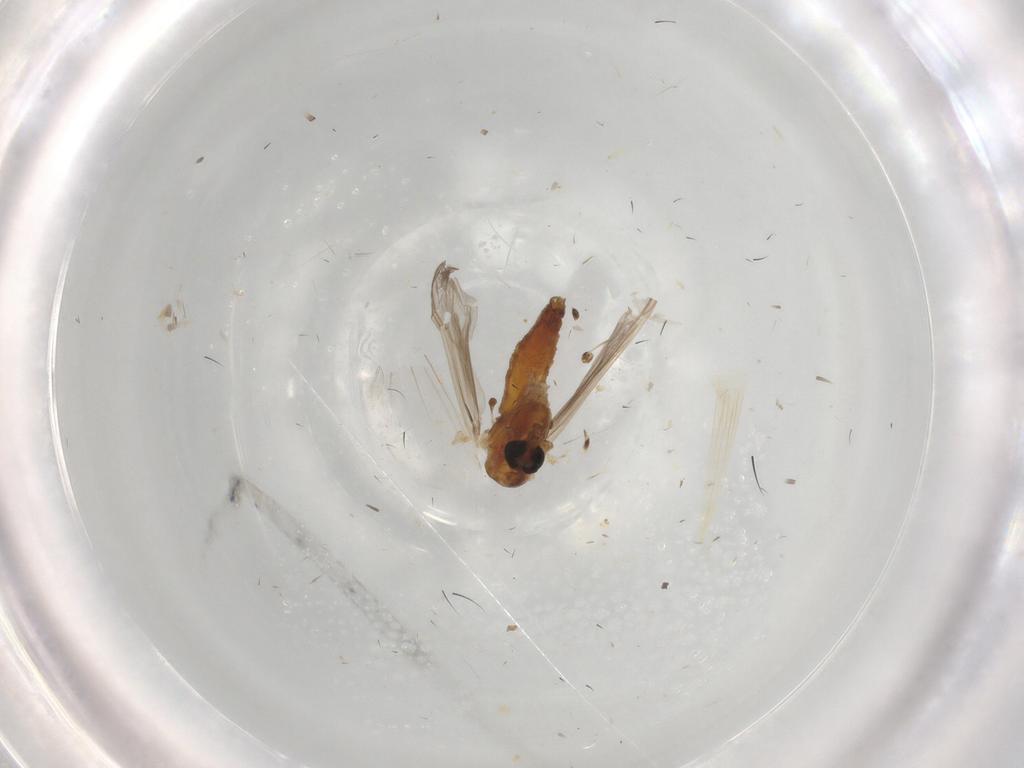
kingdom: Animalia
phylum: Arthropoda
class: Insecta
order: Diptera
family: Chironomidae
